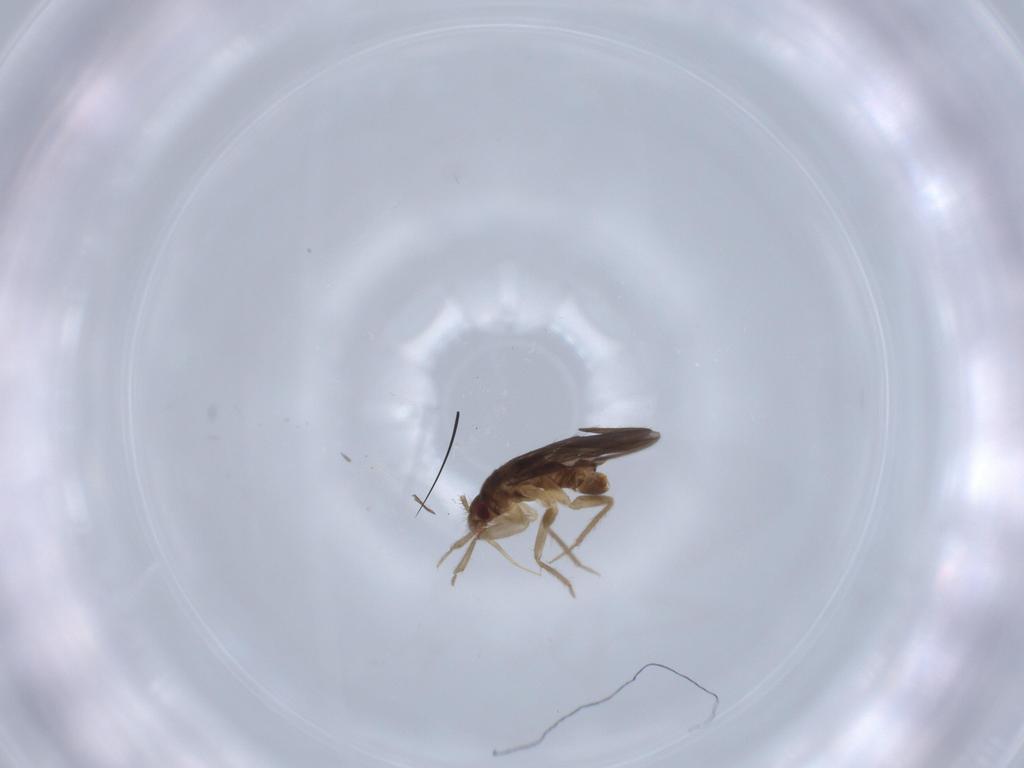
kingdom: Animalia
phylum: Arthropoda
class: Insecta
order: Hemiptera
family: Ceratocombidae
